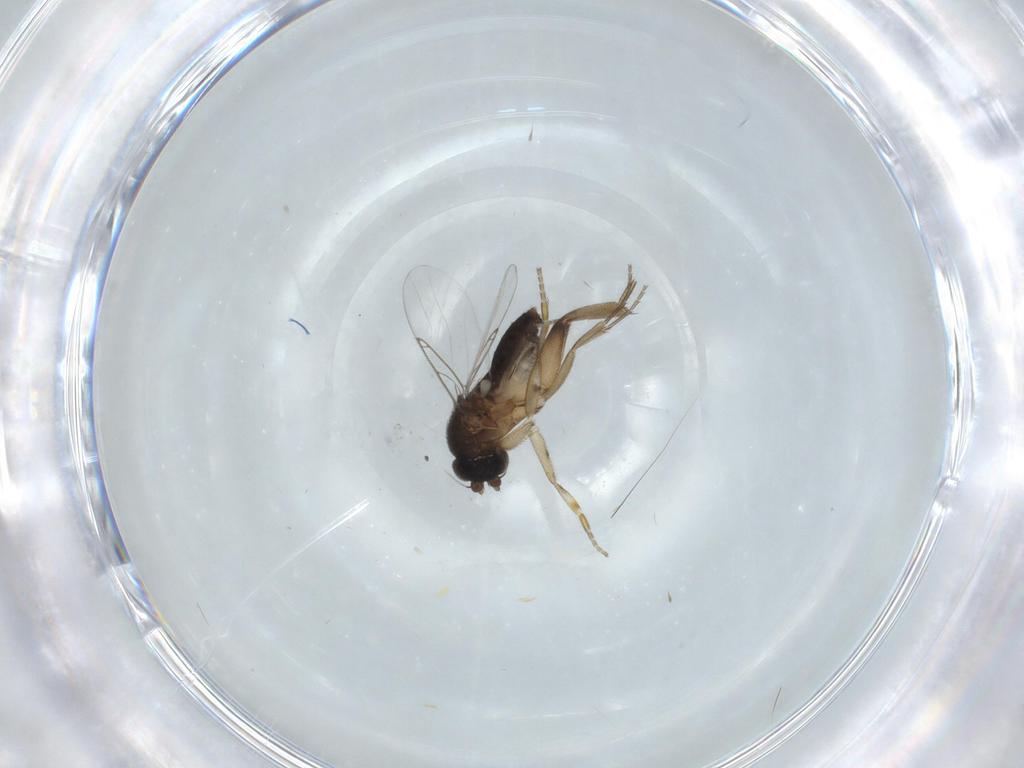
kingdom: Animalia
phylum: Arthropoda
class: Insecta
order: Diptera
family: Phoridae
